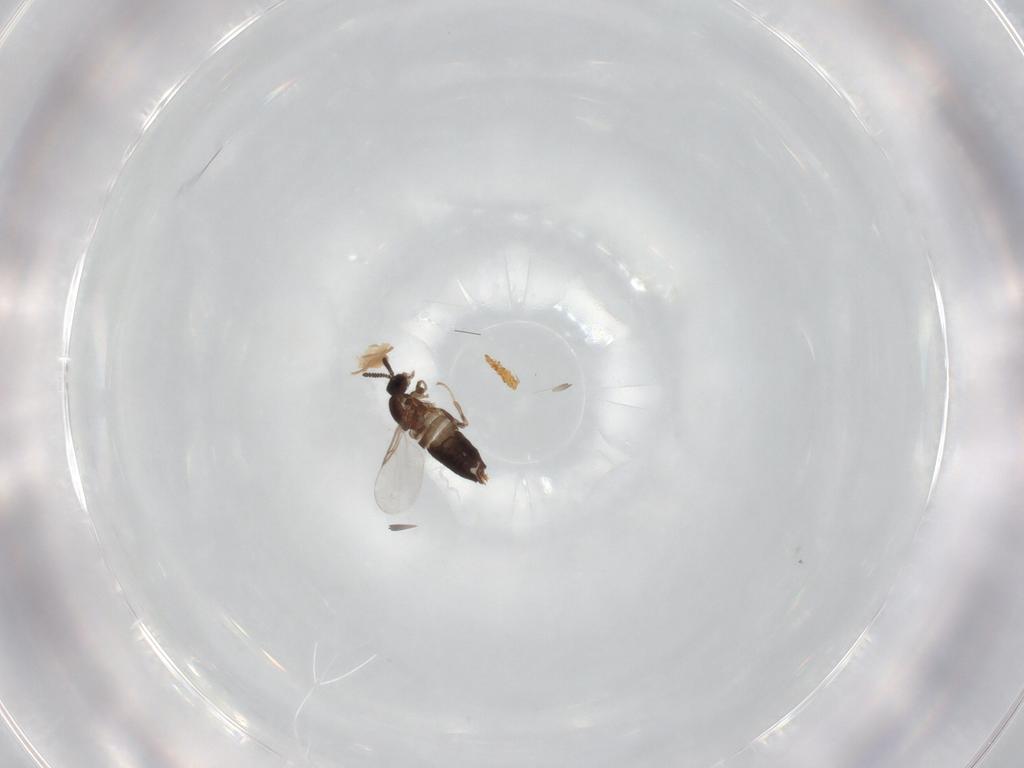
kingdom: Animalia
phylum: Arthropoda
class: Insecta
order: Diptera
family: Scatopsidae
